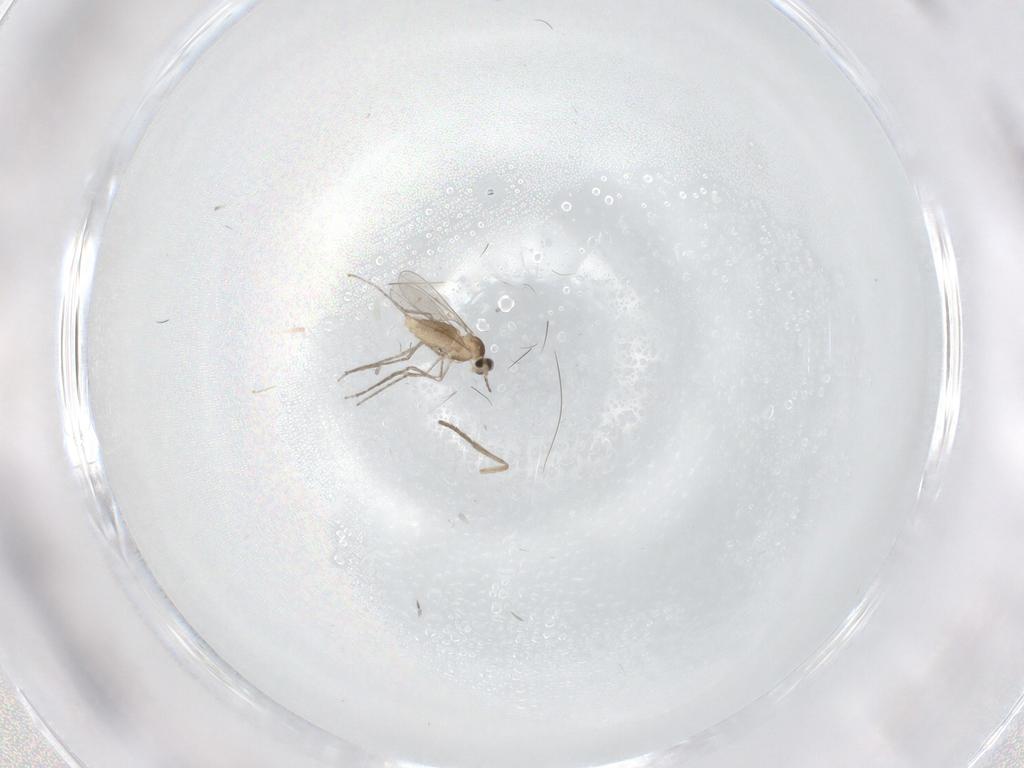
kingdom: Animalia
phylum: Arthropoda
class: Insecta
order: Diptera
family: Cecidomyiidae
